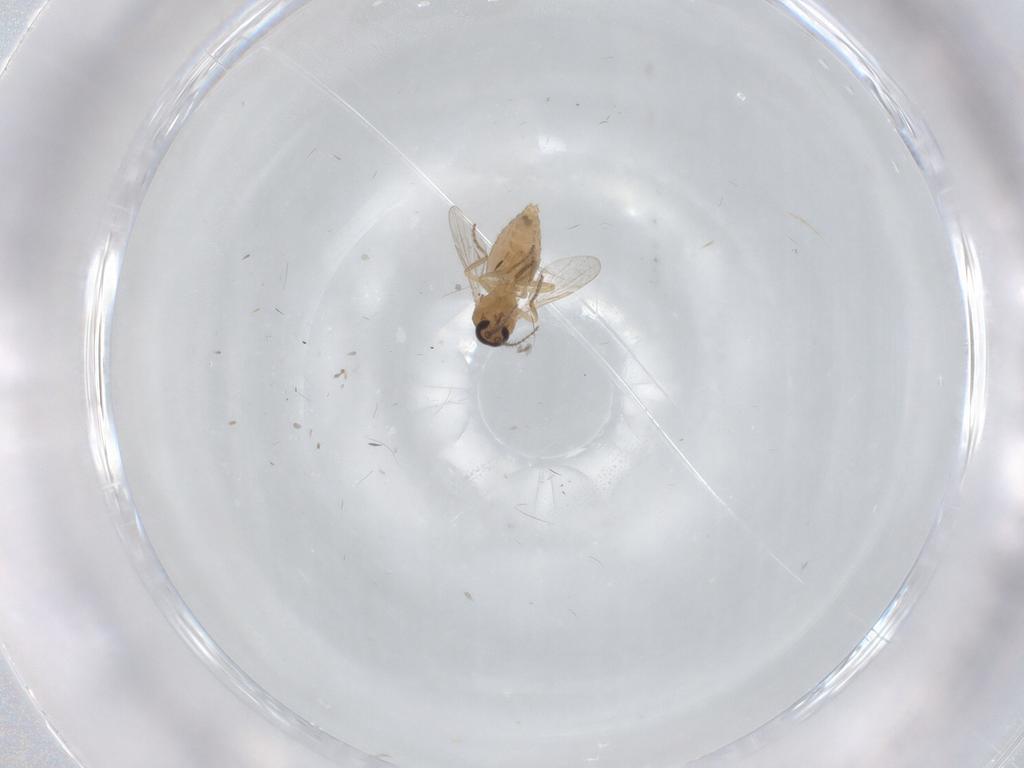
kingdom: Animalia
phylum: Arthropoda
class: Insecta
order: Diptera
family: Ceratopogonidae
